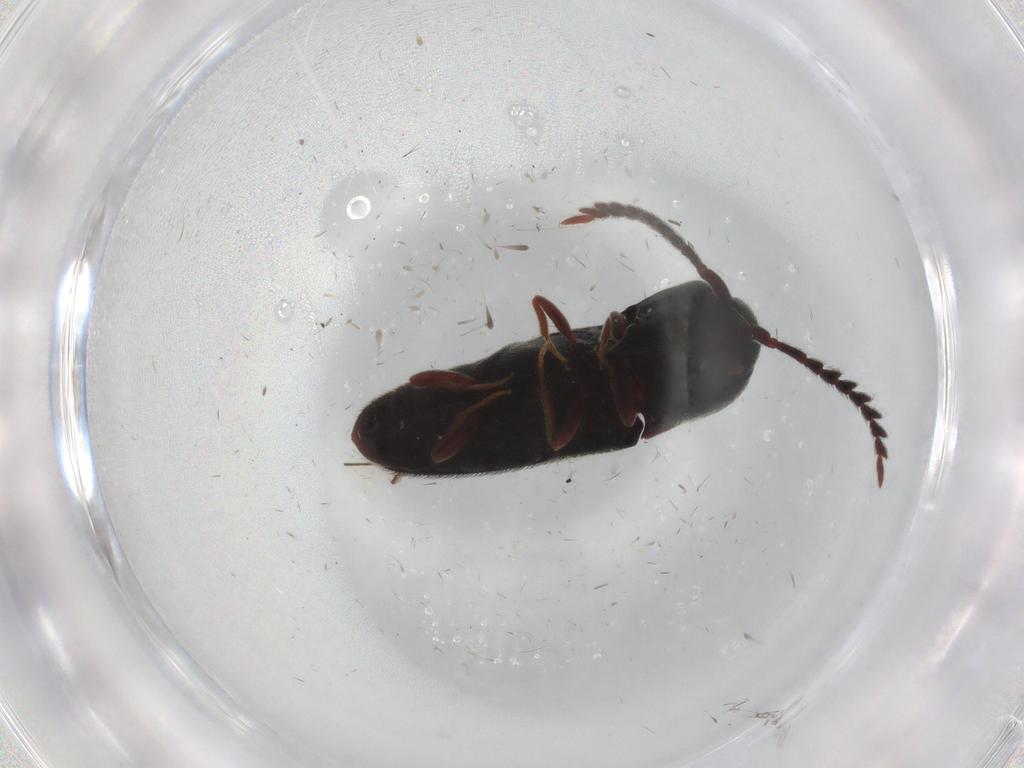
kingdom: Animalia
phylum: Arthropoda
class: Insecta
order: Coleoptera
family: Eucnemidae
